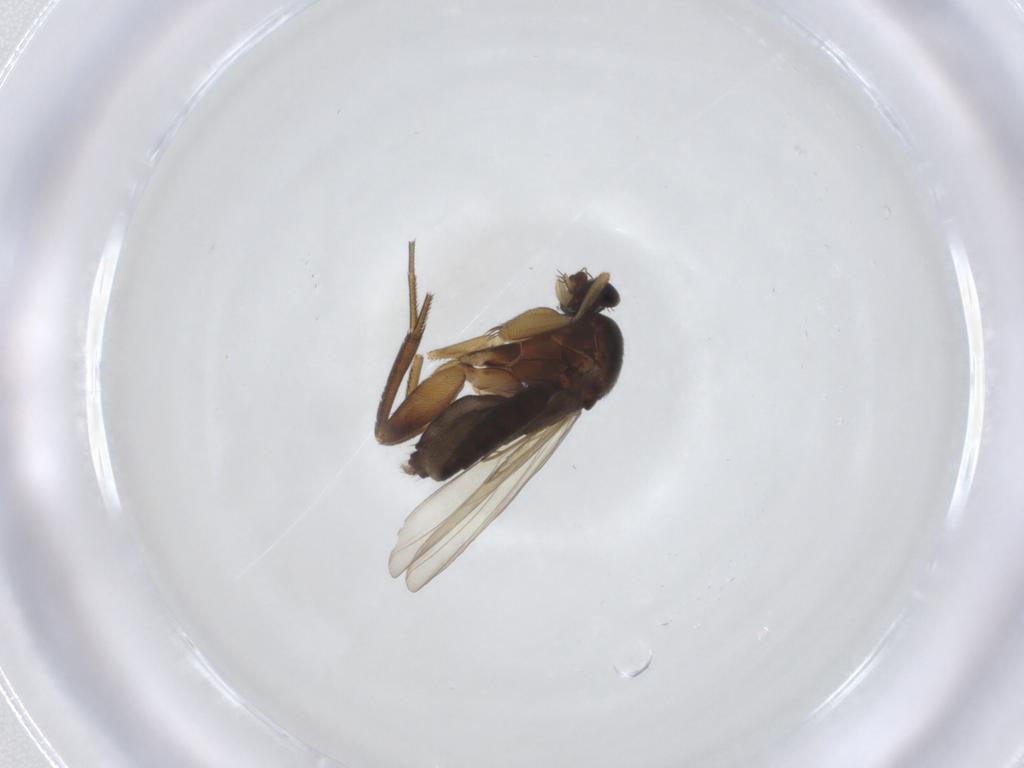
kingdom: Animalia
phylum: Arthropoda
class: Insecta
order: Diptera
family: Phoridae
